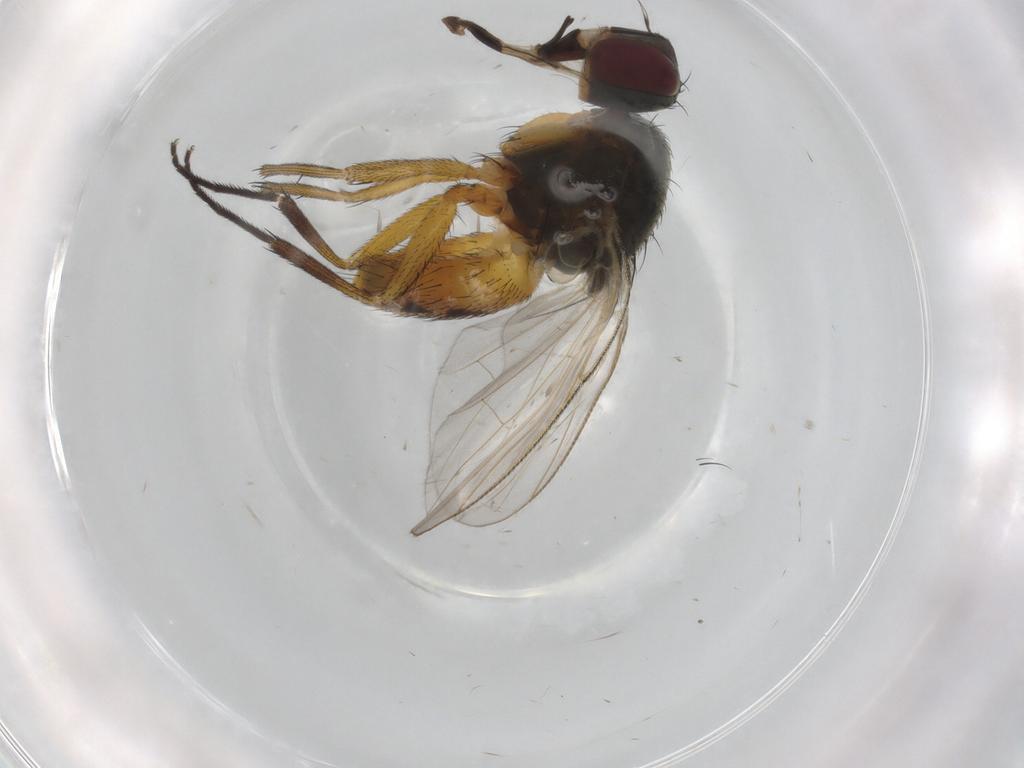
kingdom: Animalia
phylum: Arthropoda
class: Insecta
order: Diptera
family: Muscidae
